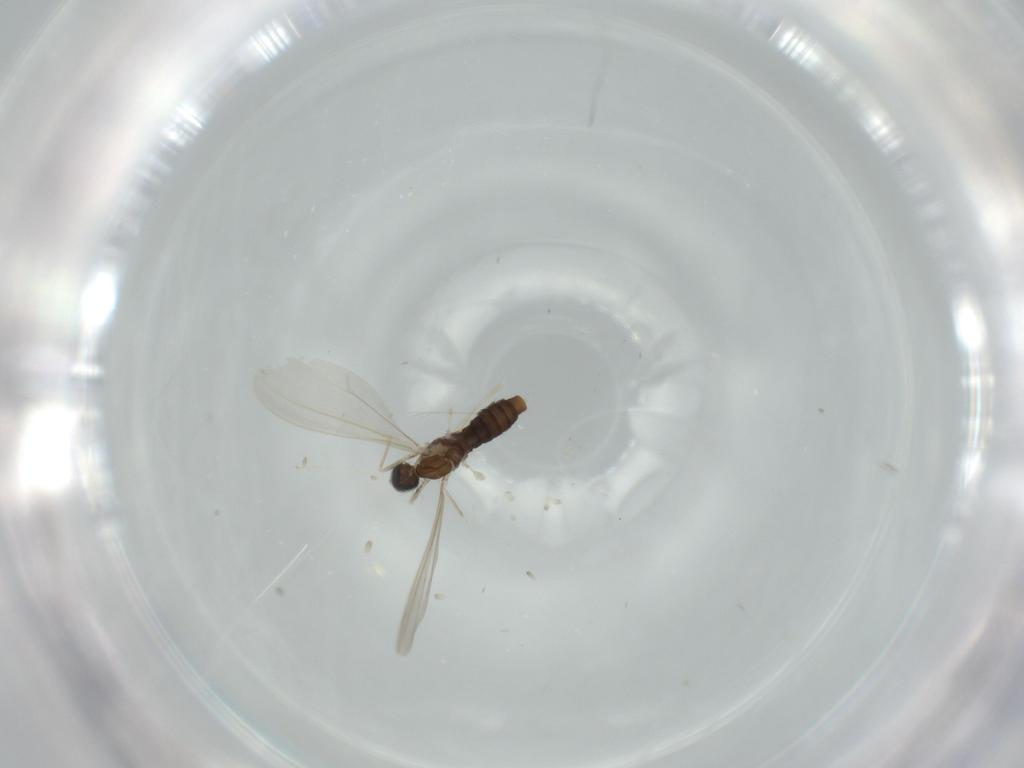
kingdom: Animalia
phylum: Arthropoda
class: Insecta
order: Diptera
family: Cecidomyiidae
